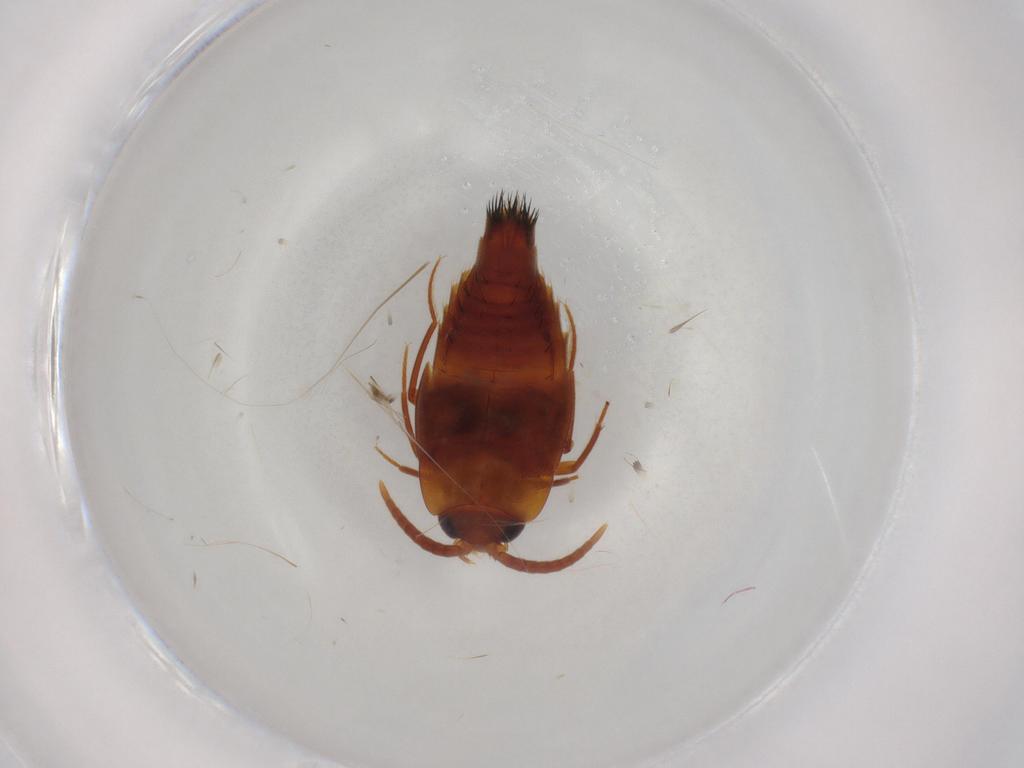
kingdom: Animalia
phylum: Arthropoda
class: Insecta
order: Coleoptera
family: Staphylinidae
